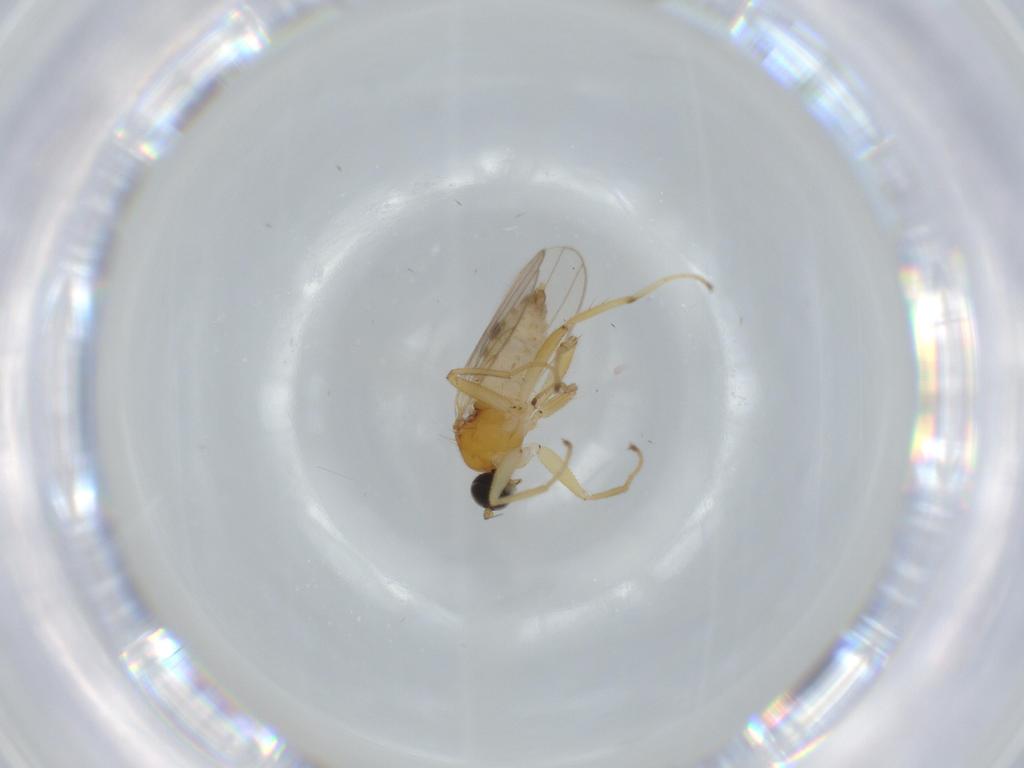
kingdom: Animalia
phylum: Arthropoda
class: Insecta
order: Diptera
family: Hybotidae
